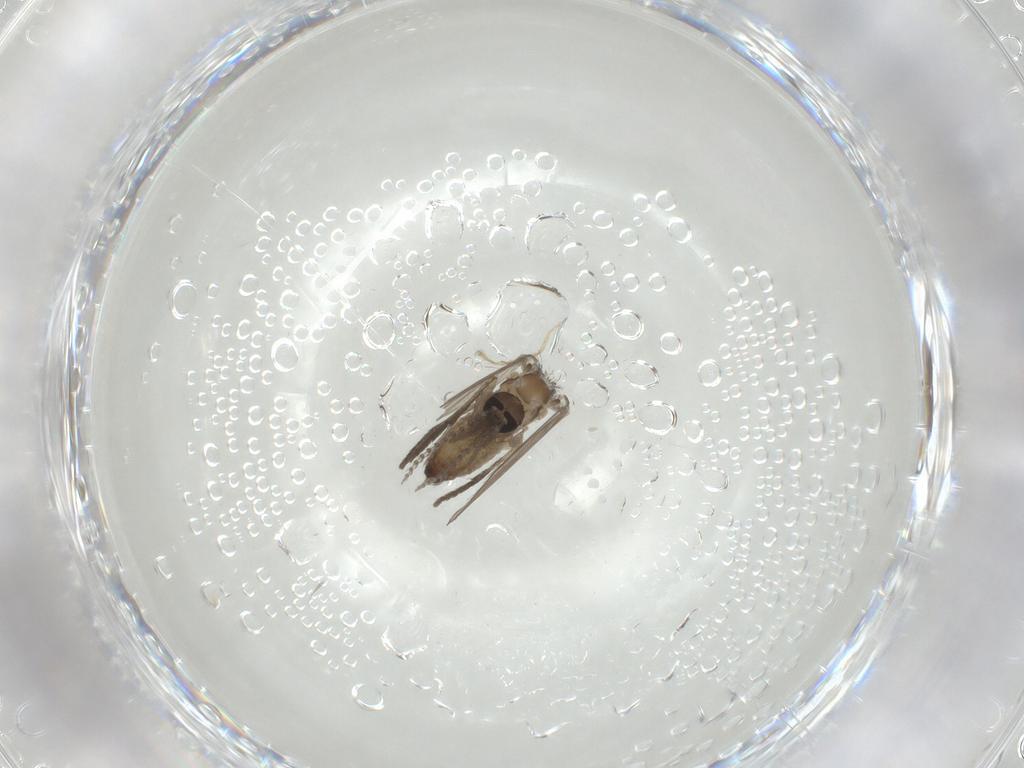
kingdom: Animalia
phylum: Arthropoda
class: Insecta
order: Diptera
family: Psychodidae
